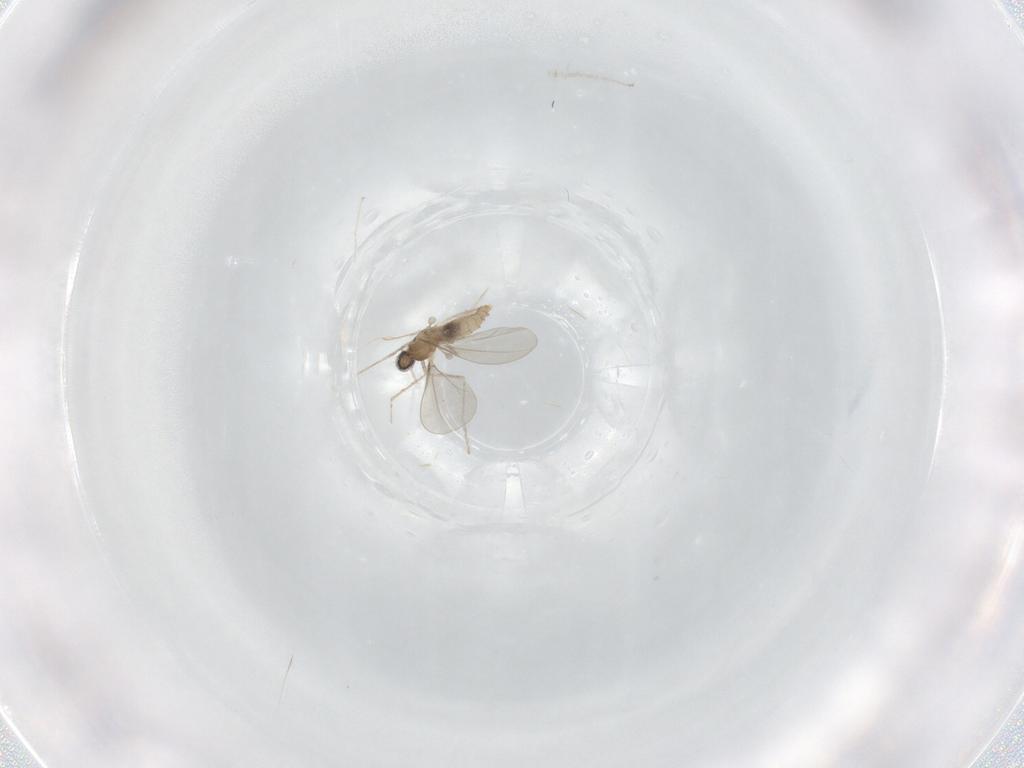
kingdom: Animalia
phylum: Arthropoda
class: Insecta
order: Diptera
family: Cecidomyiidae
